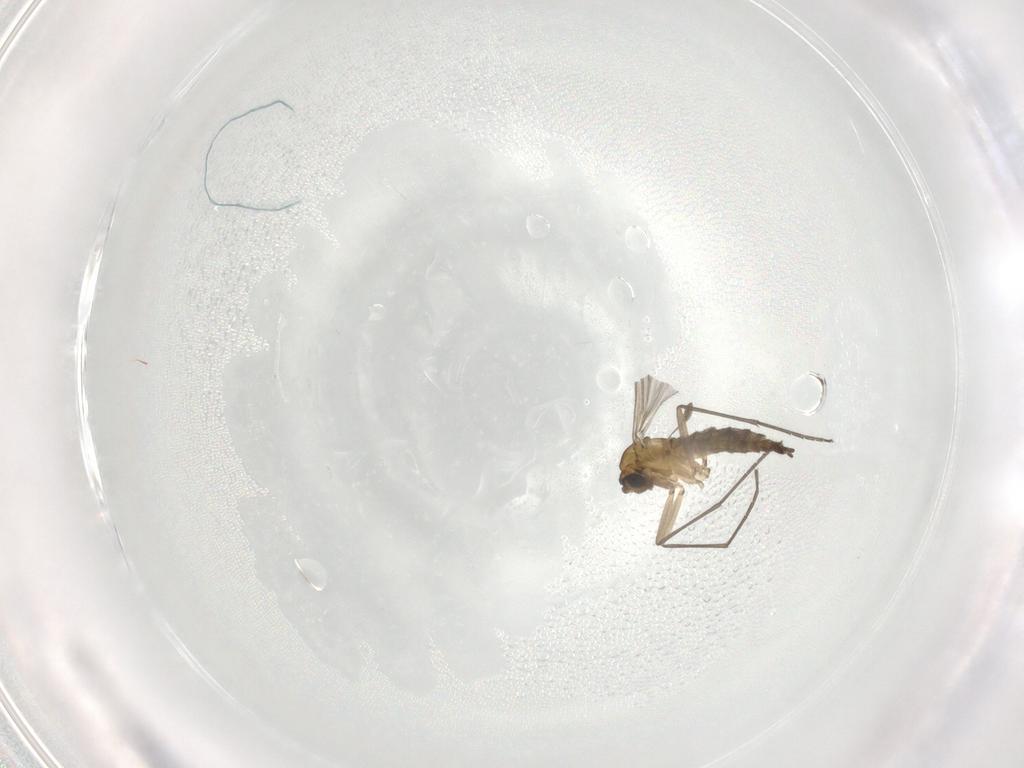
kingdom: Animalia
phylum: Arthropoda
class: Insecta
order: Diptera
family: Sciaridae
